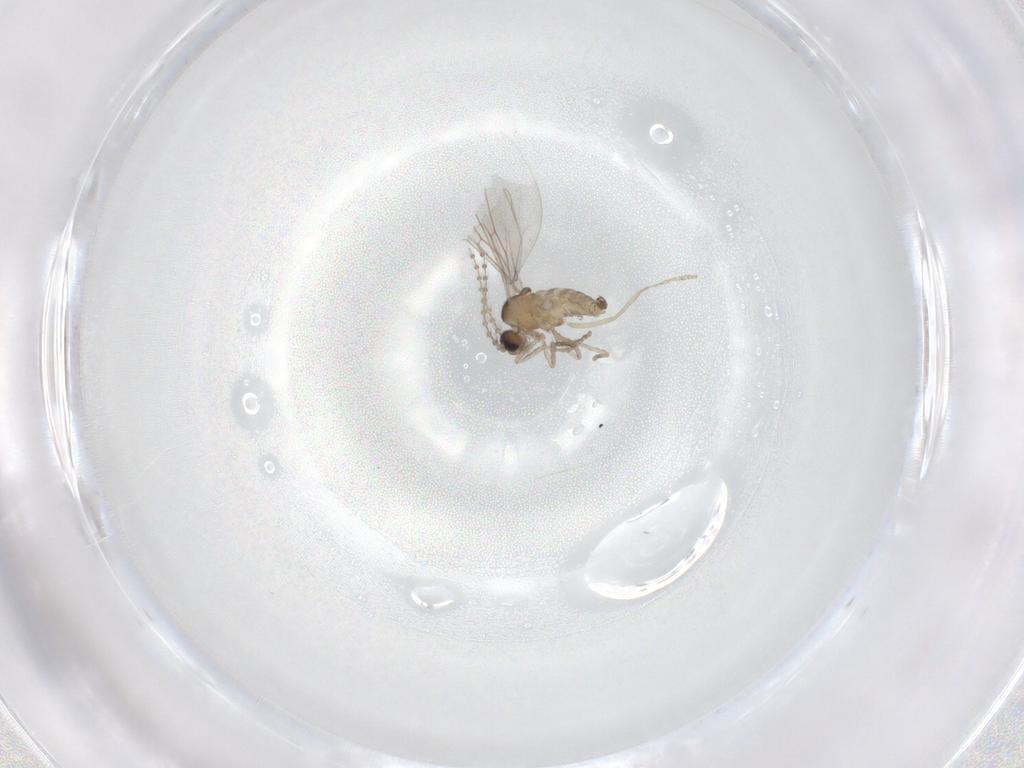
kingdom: Animalia
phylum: Arthropoda
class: Insecta
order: Diptera
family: Cecidomyiidae
